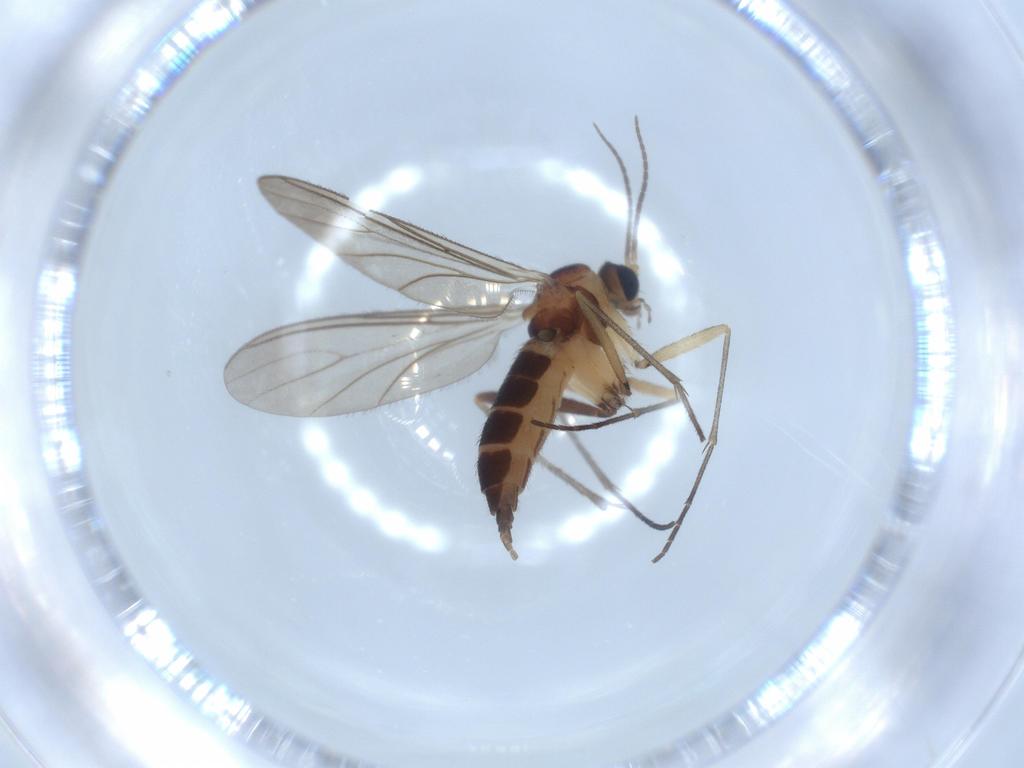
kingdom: Animalia
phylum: Arthropoda
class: Insecta
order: Diptera
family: Sciaridae
